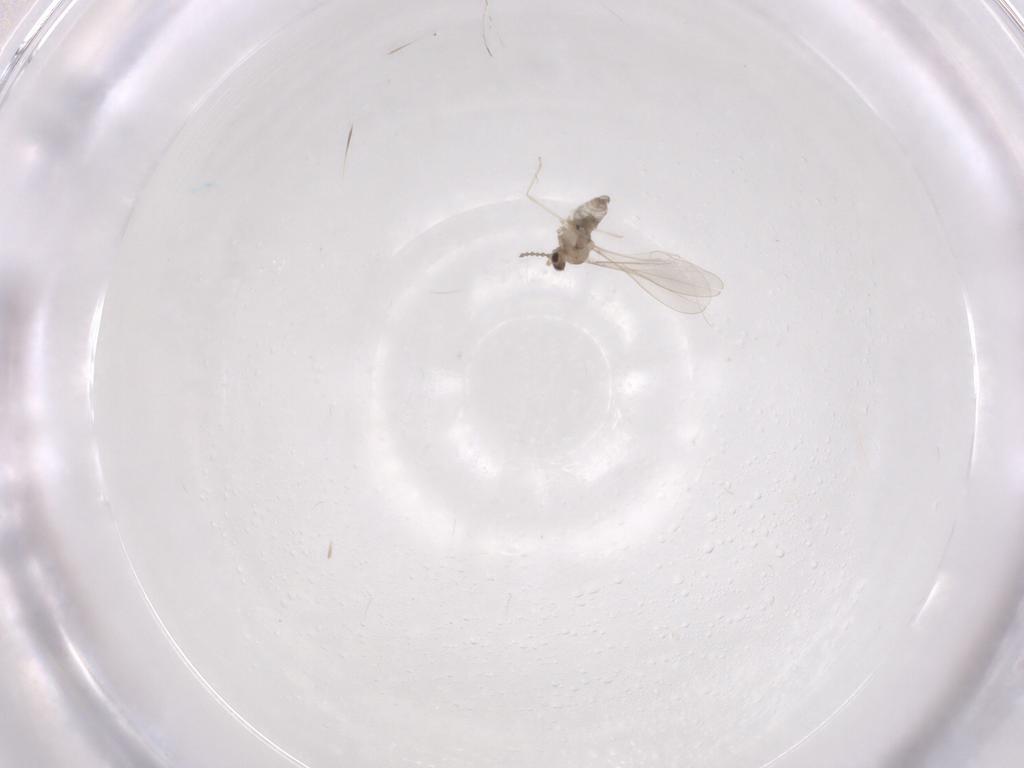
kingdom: Animalia
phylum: Arthropoda
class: Insecta
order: Diptera
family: Cecidomyiidae
